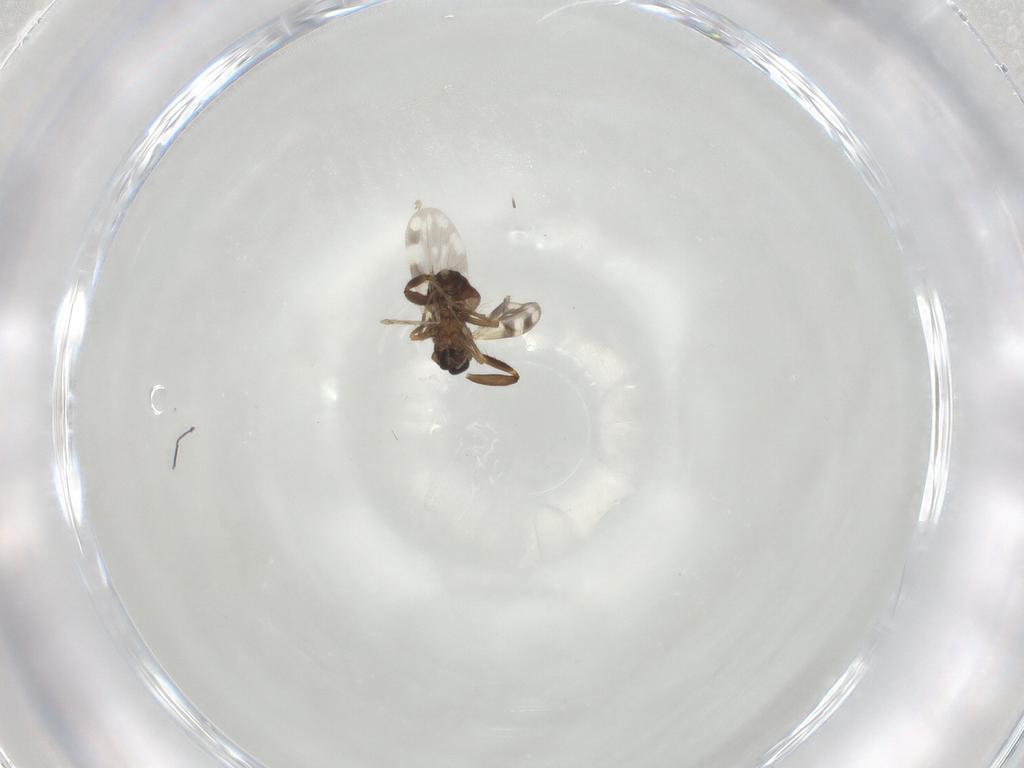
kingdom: Animalia
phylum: Arthropoda
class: Insecta
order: Diptera
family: Ceratopogonidae
